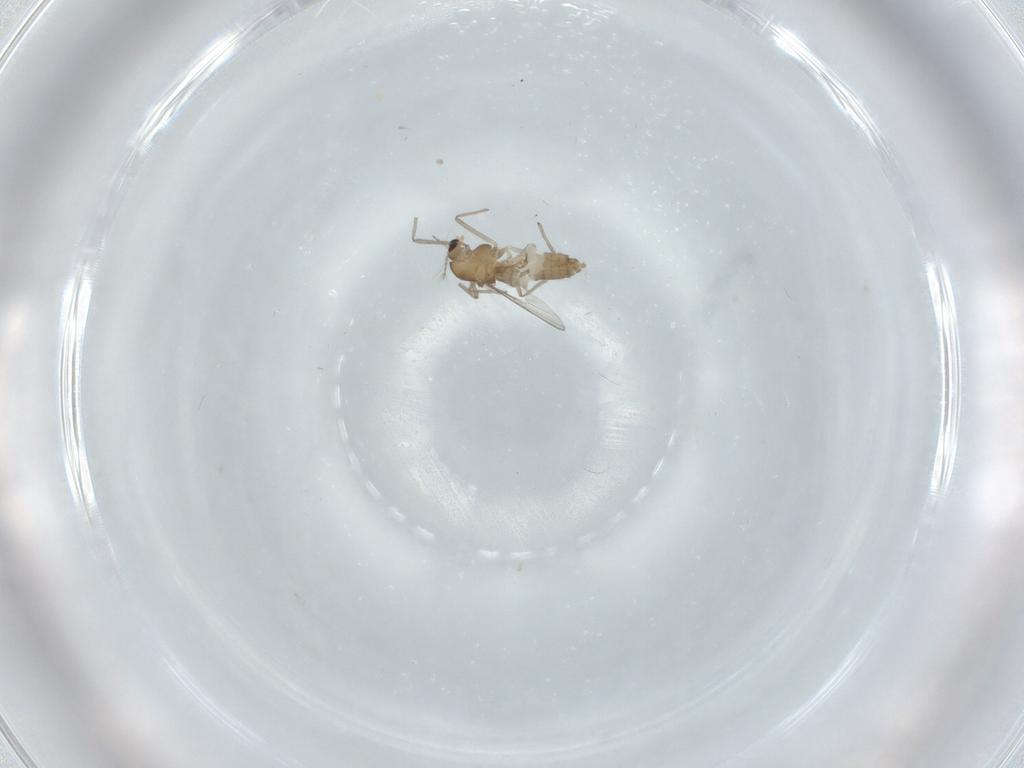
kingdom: Animalia
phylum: Arthropoda
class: Insecta
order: Diptera
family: Chironomidae
